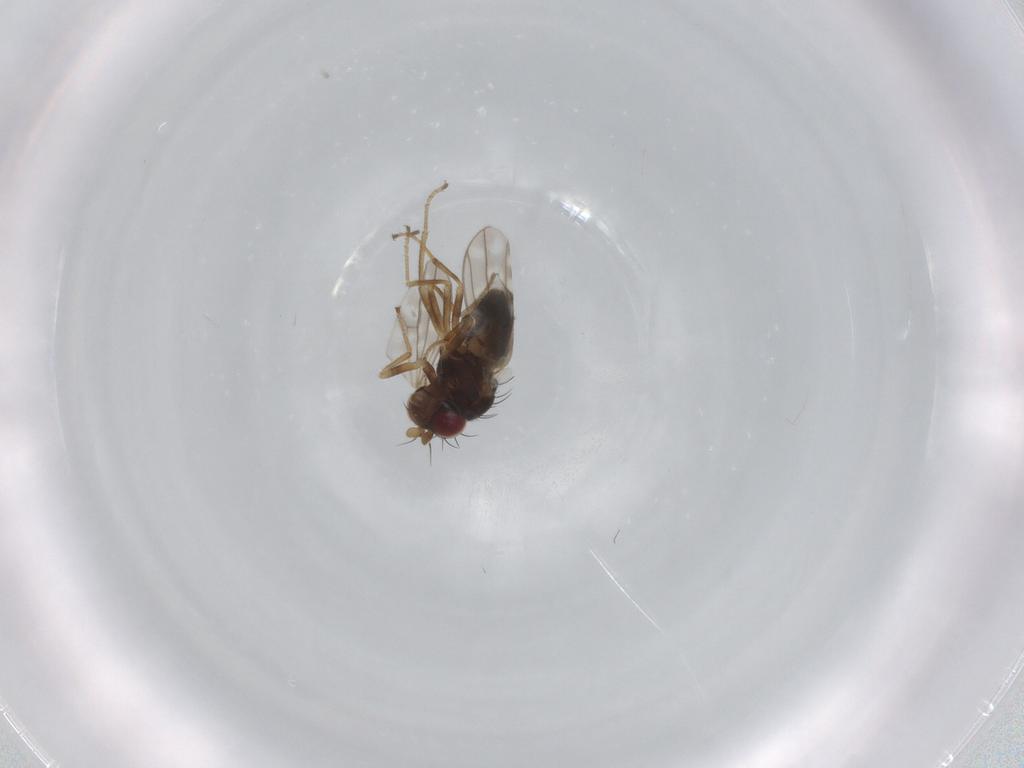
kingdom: Animalia
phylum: Arthropoda
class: Insecta
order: Diptera
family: Ephydridae
